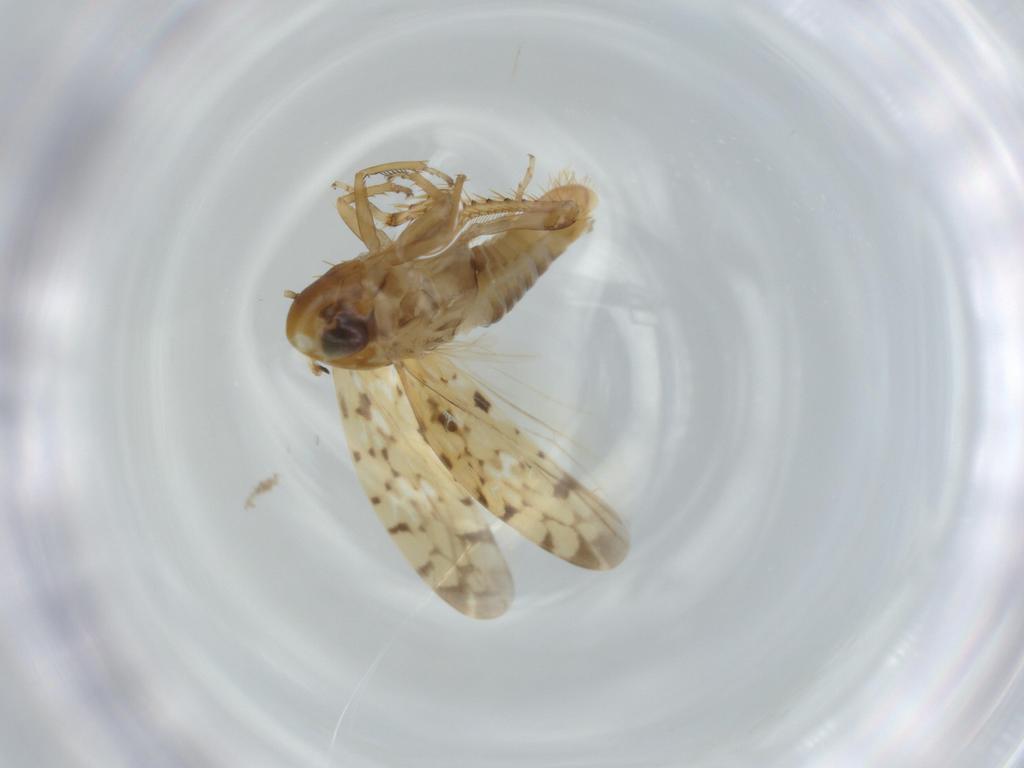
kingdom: Animalia
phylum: Arthropoda
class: Insecta
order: Hemiptera
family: Cicadellidae
